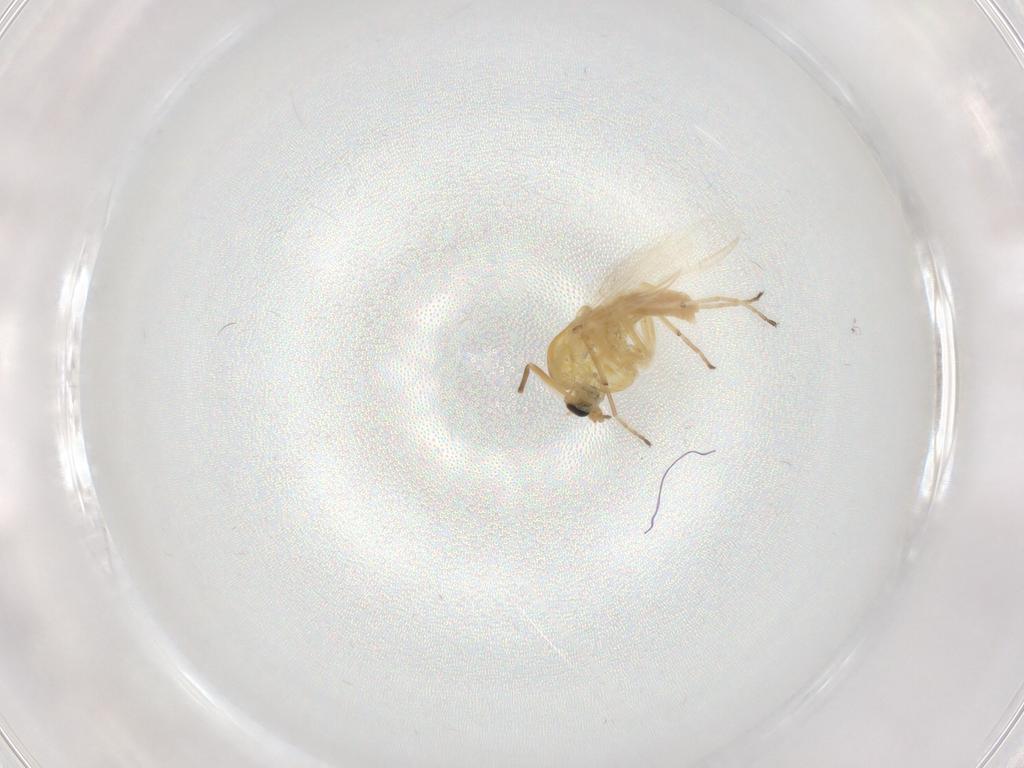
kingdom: Animalia
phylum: Arthropoda
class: Insecta
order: Diptera
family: Chironomidae
